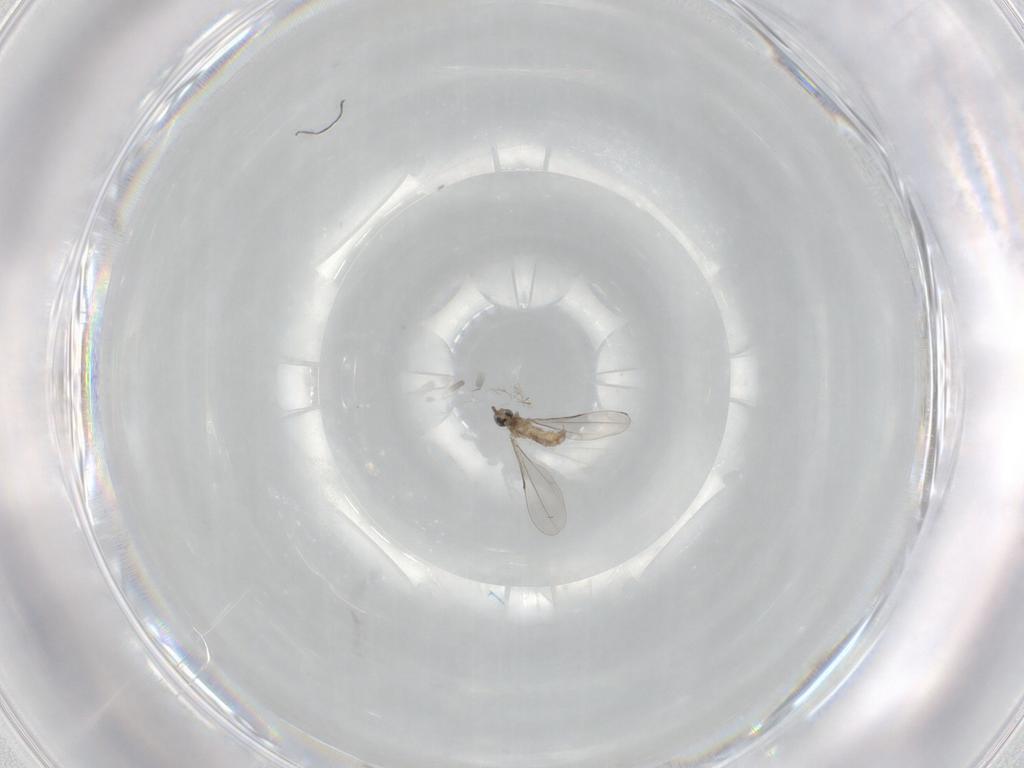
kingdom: Animalia
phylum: Arthropoda
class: Insecta
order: Diptera
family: Cecidomyiidae
